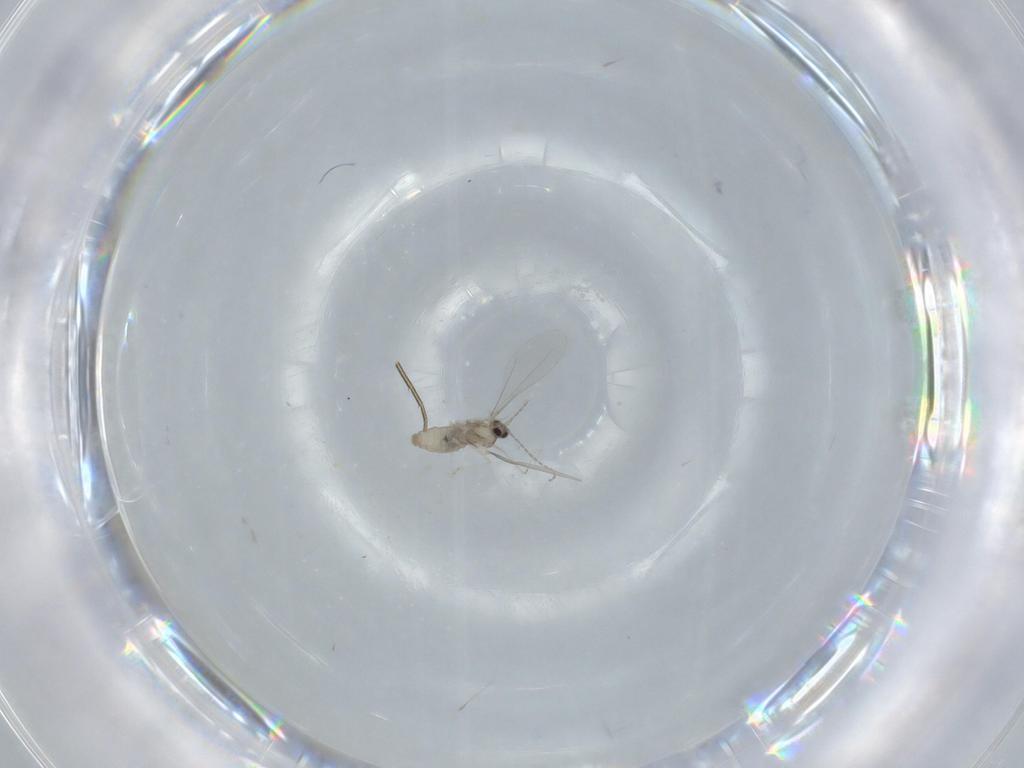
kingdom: Animalia
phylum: Arthropoda
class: Insecta
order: Diptera
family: Cecidomyiidae
